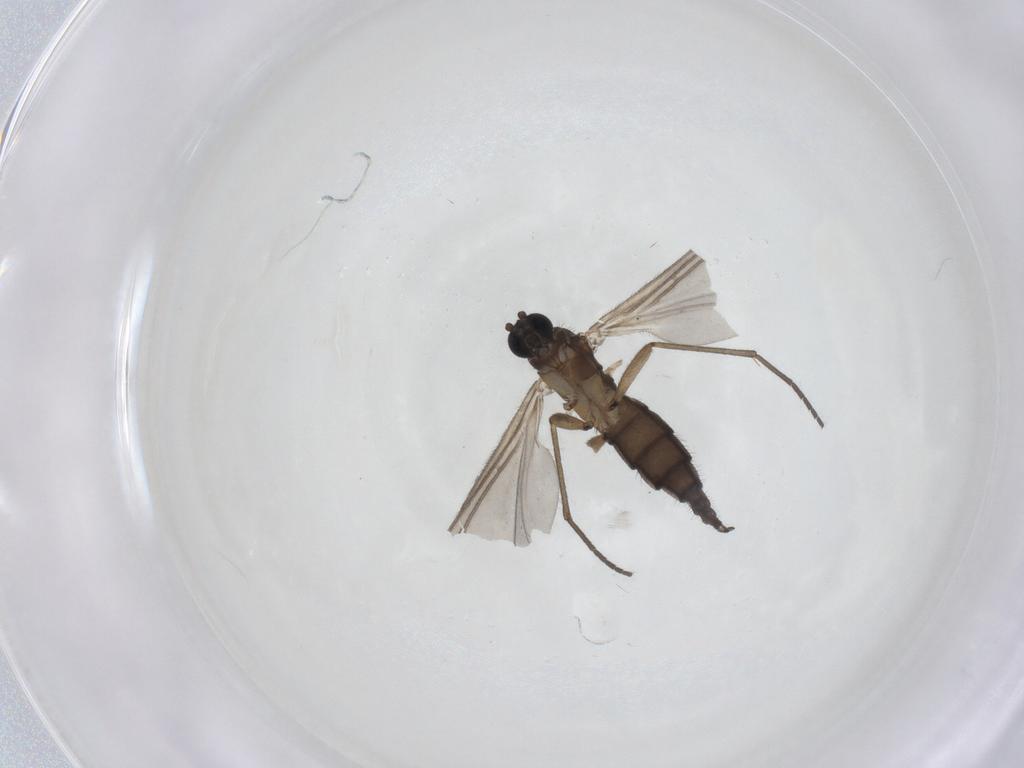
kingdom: Animalia
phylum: Arthropoda
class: Insecta
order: Diptera
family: Sciaridae
